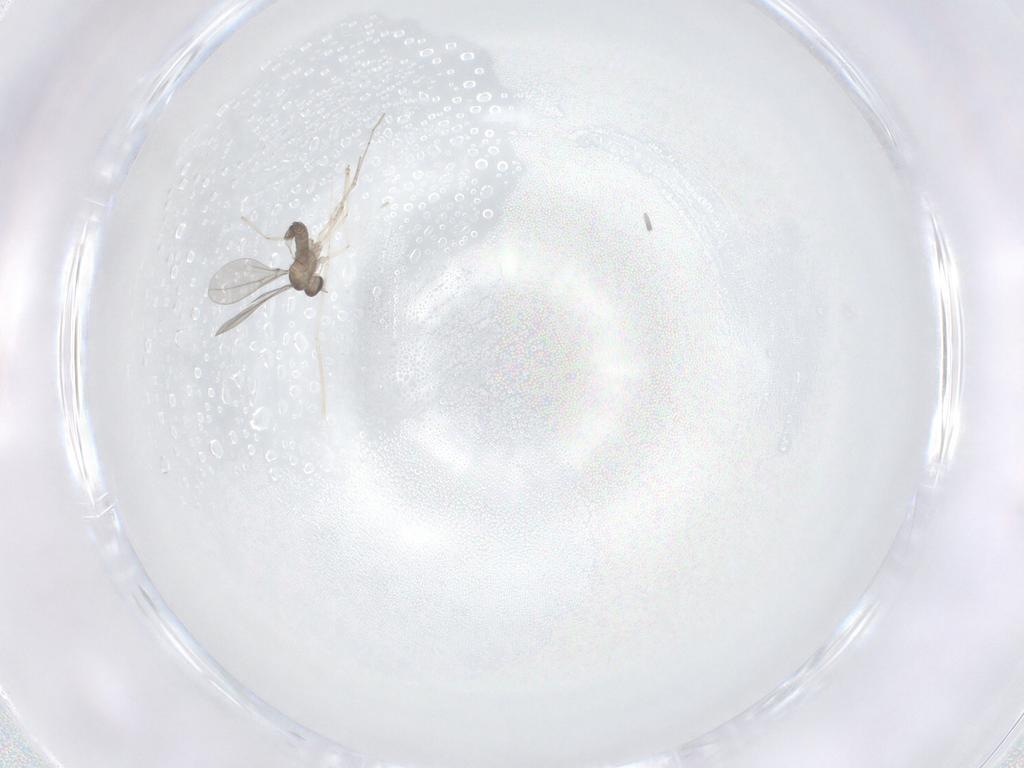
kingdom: Animalia
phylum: Arthropoda
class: Insecta
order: Diptera
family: Cecidomyiidae
